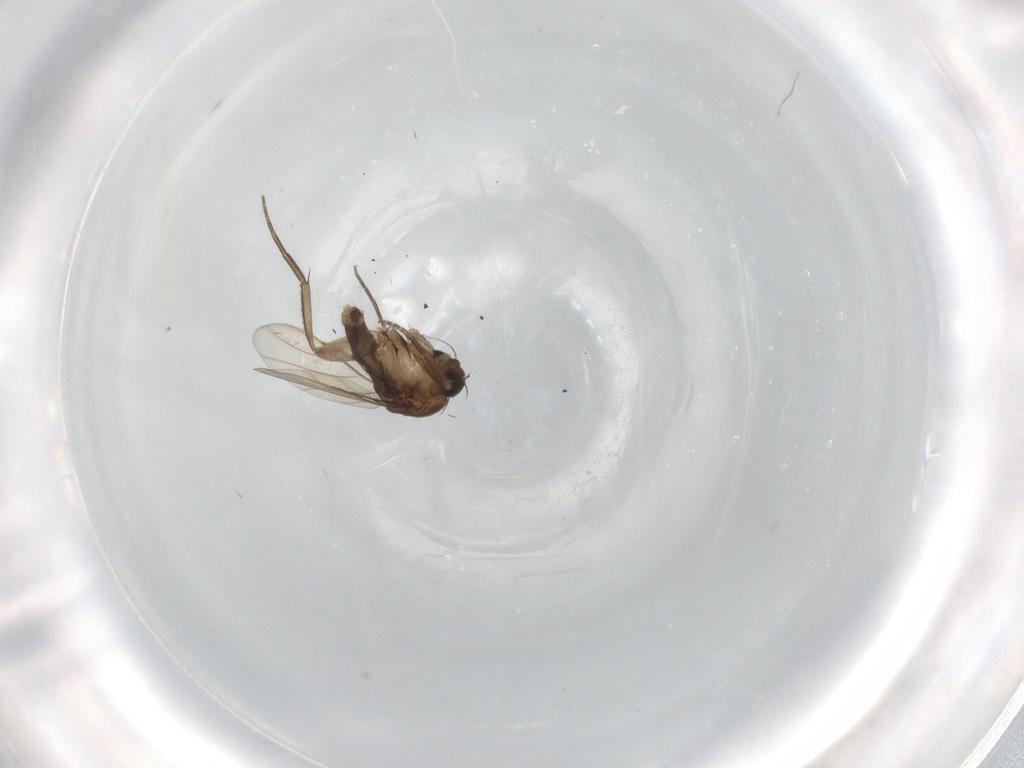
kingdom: Animalia
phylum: Arthropoda
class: Insecta
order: Diptera
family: Phoridae
